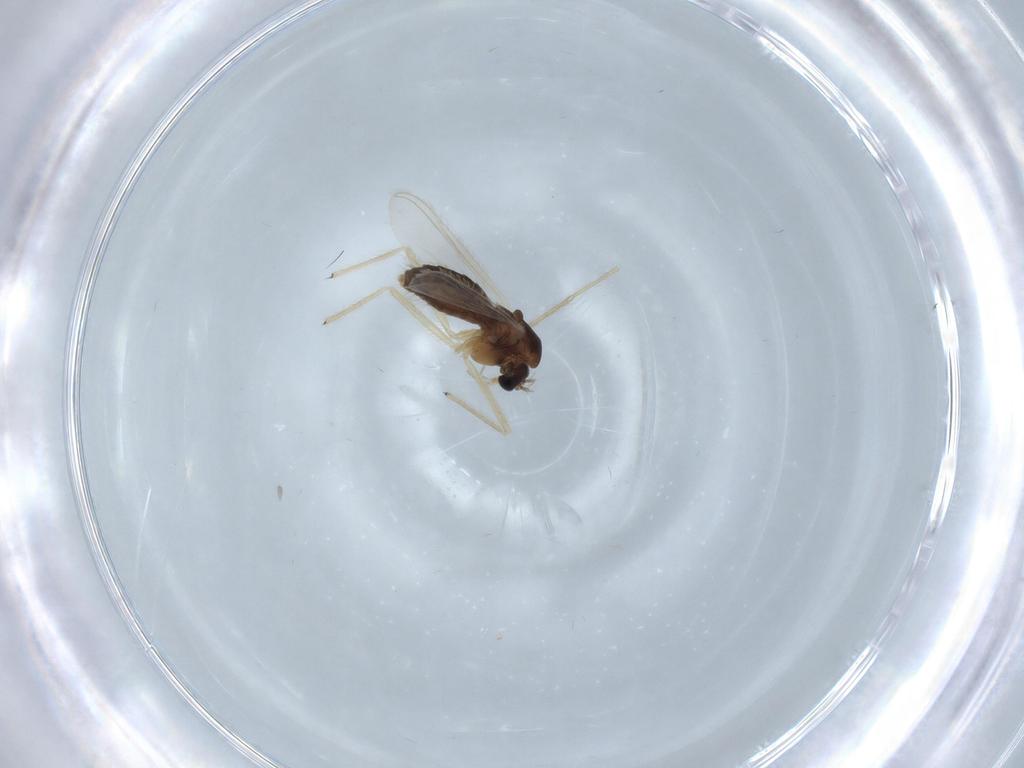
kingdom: Animalia
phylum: Arthropoda
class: Insecta
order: Diptera
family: Chironomidae
